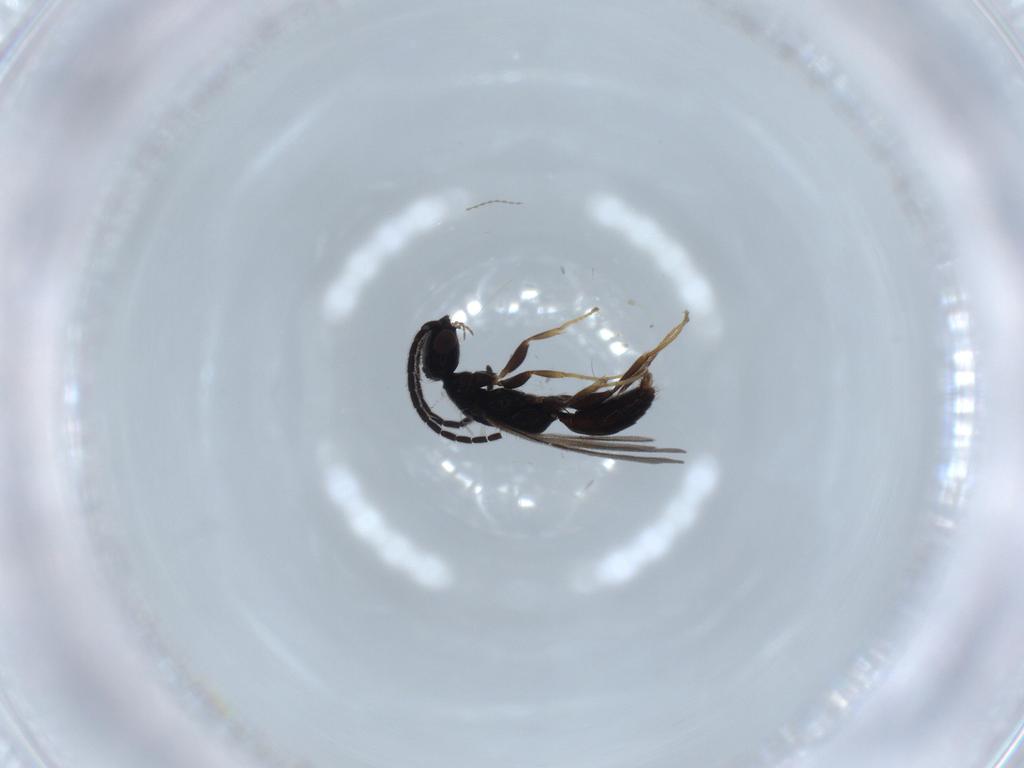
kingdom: Animalia
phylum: Arthropoda
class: Insecta
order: Hymenoptera
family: Bethylidae
